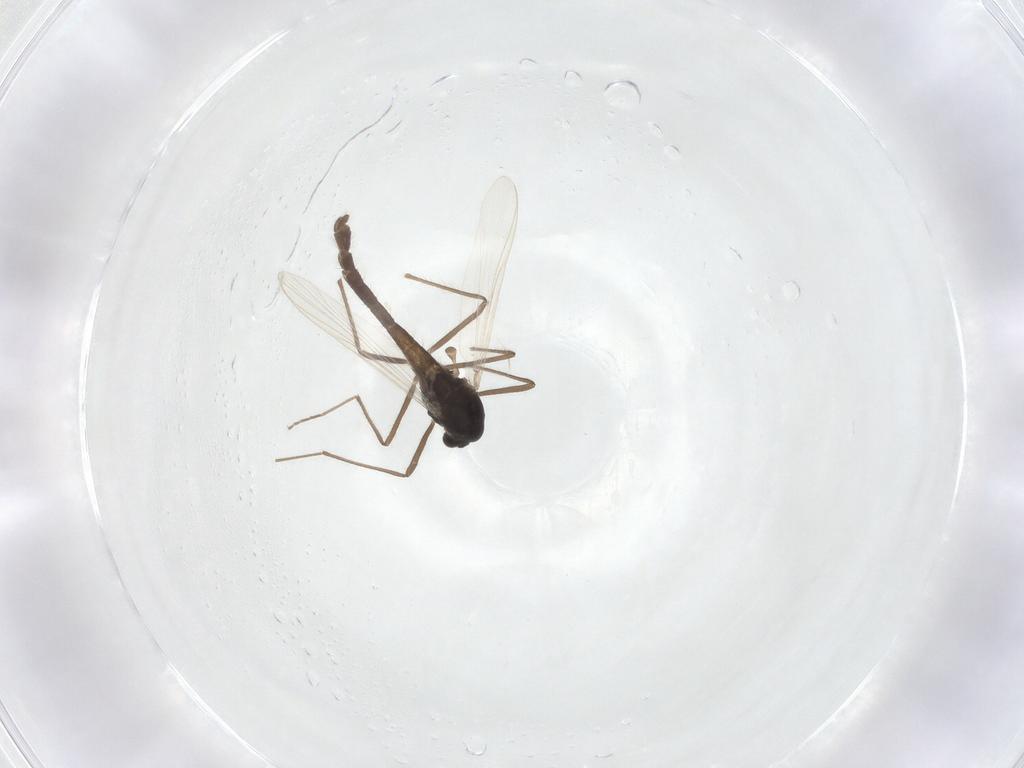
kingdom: Animalia
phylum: Arthropoda
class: Insecta
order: Diptera
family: Chironomidae
